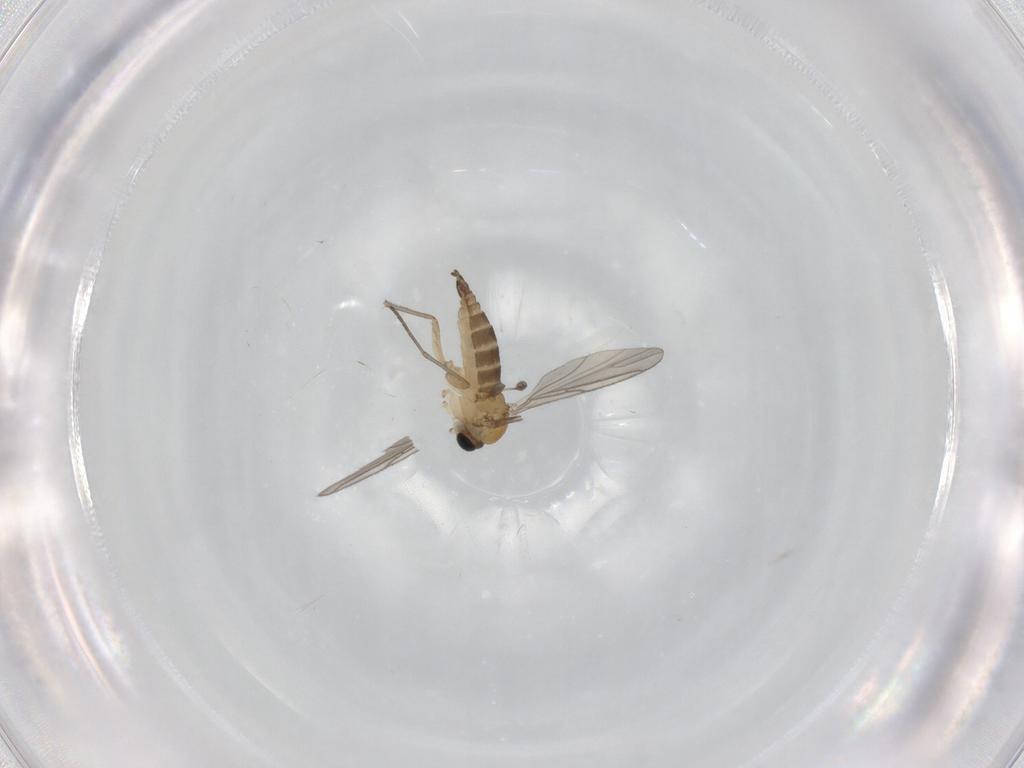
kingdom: Animalia
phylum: Arthropoda
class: Insecta
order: Diptera
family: Cecidomyiidae
